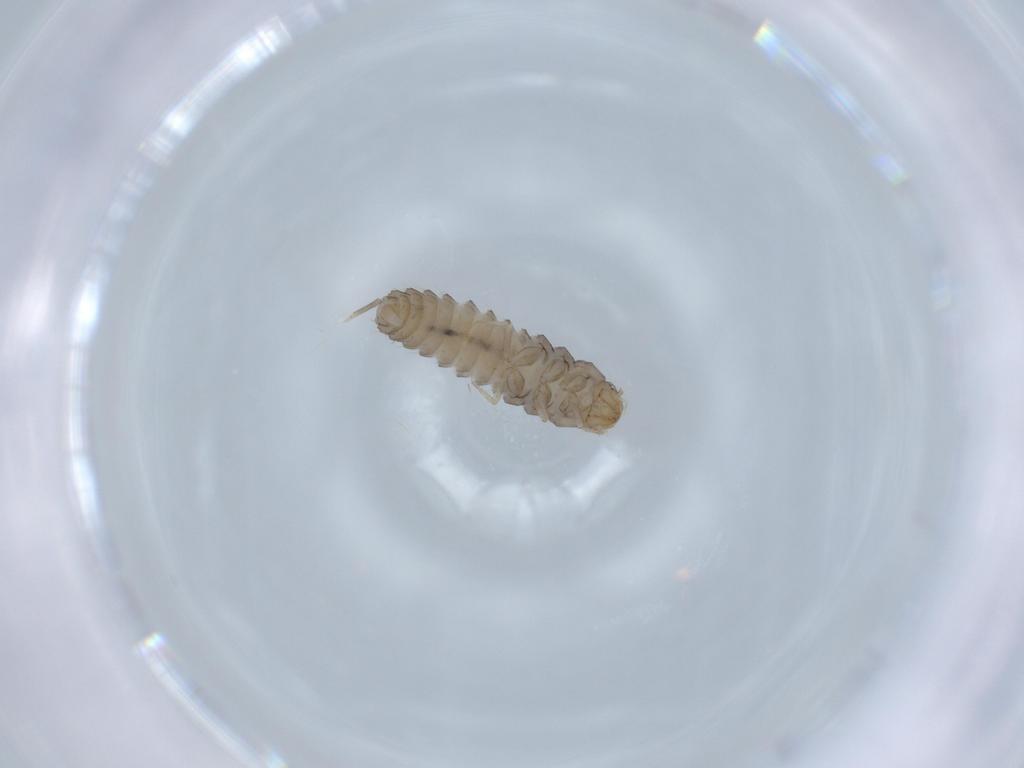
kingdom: Animalia
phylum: Arthropoda
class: Insecta
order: Coleoptera
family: Staphylinidae
